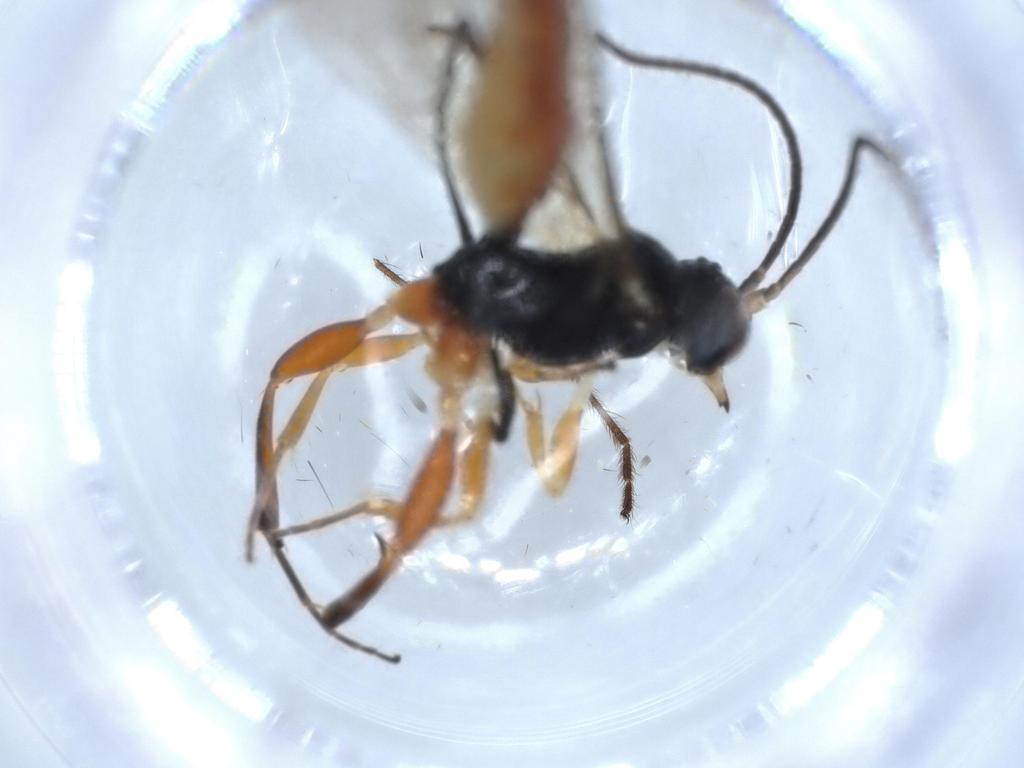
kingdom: Animalia
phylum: Arthropoda
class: Insecta
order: Hymenoptera
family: Ichneumonidae
